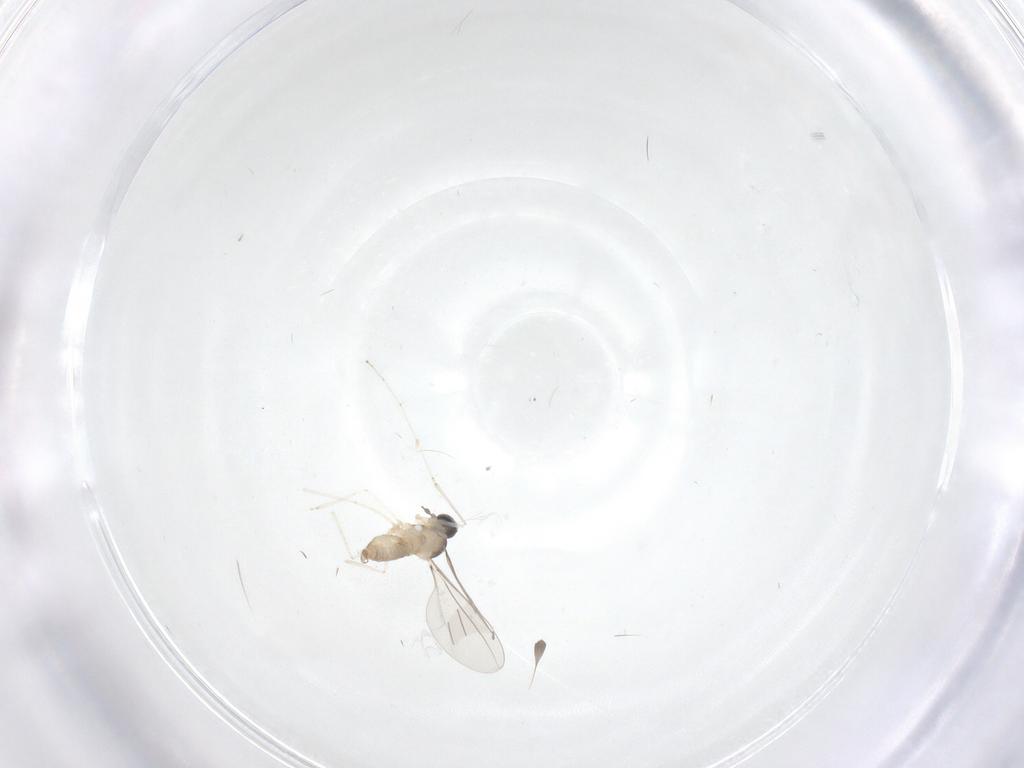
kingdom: Animalia
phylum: Arthropoda
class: Insecta
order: Diptera
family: Cecidomyiidae
